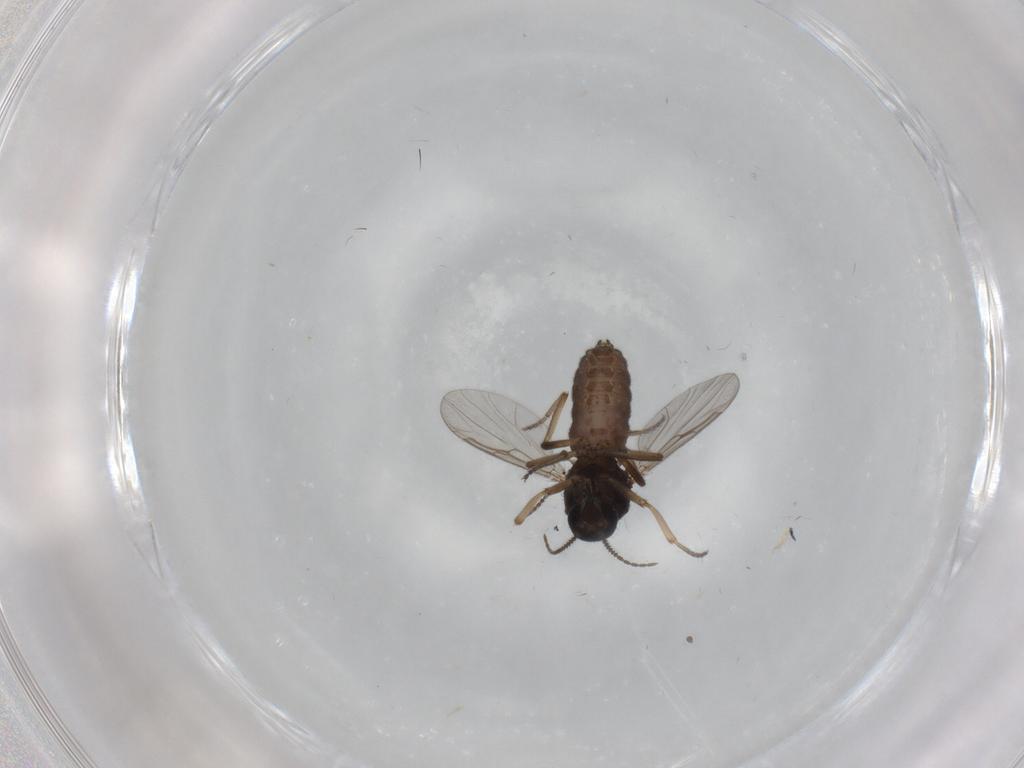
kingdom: Animalia
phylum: Arthropoda
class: Insecta
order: Diptera
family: Ceratopogonidae
